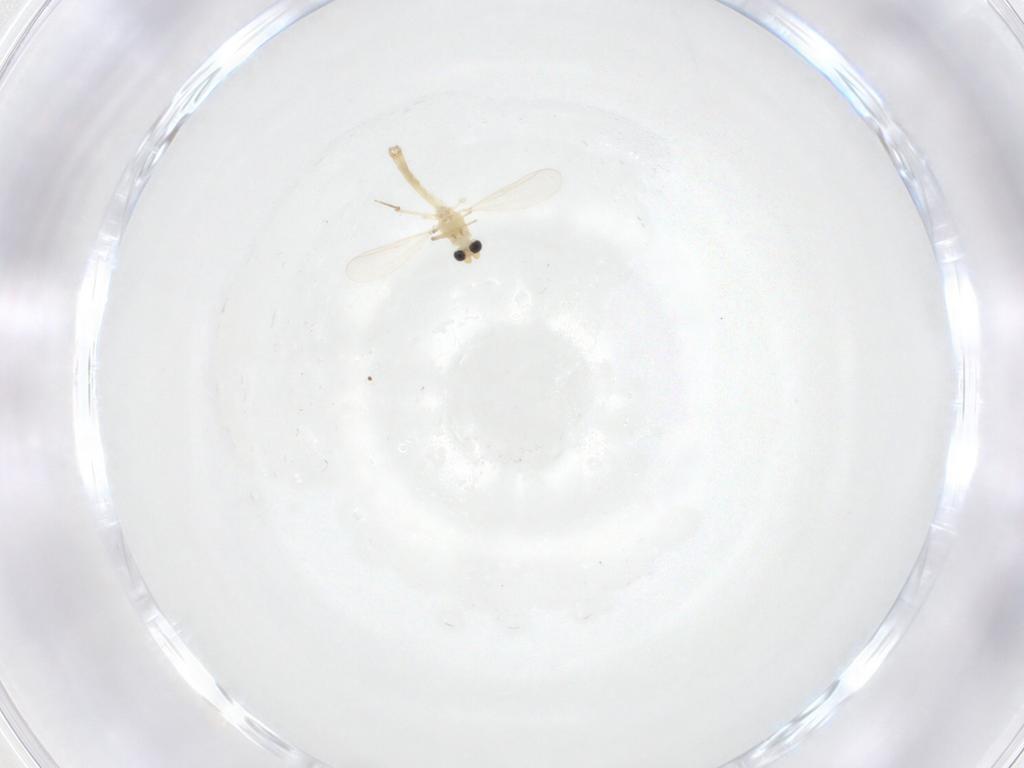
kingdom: Animalia
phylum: Arthropoda
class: Insecta
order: Diptera
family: Chironomidae
